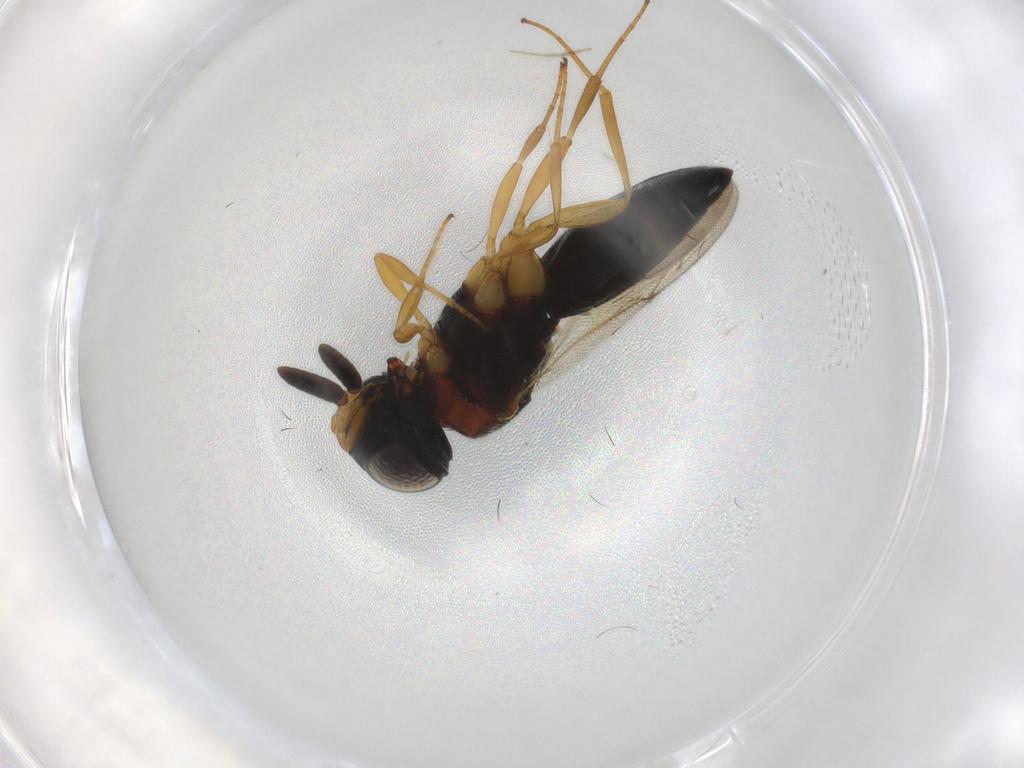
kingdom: Animalia
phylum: Arthropoda
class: Insecta
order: Hymenoptera
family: Scelionidae
